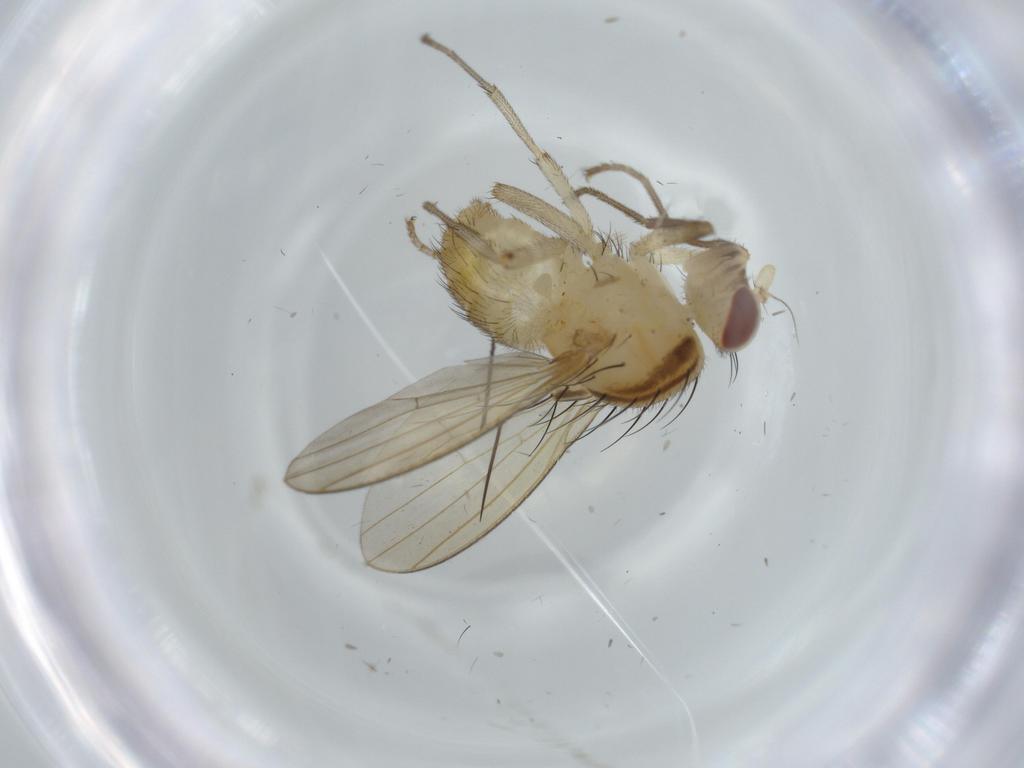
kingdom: Animalia
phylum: Arthropoda
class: Insecta
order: Diptera
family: Lauxaniidae
